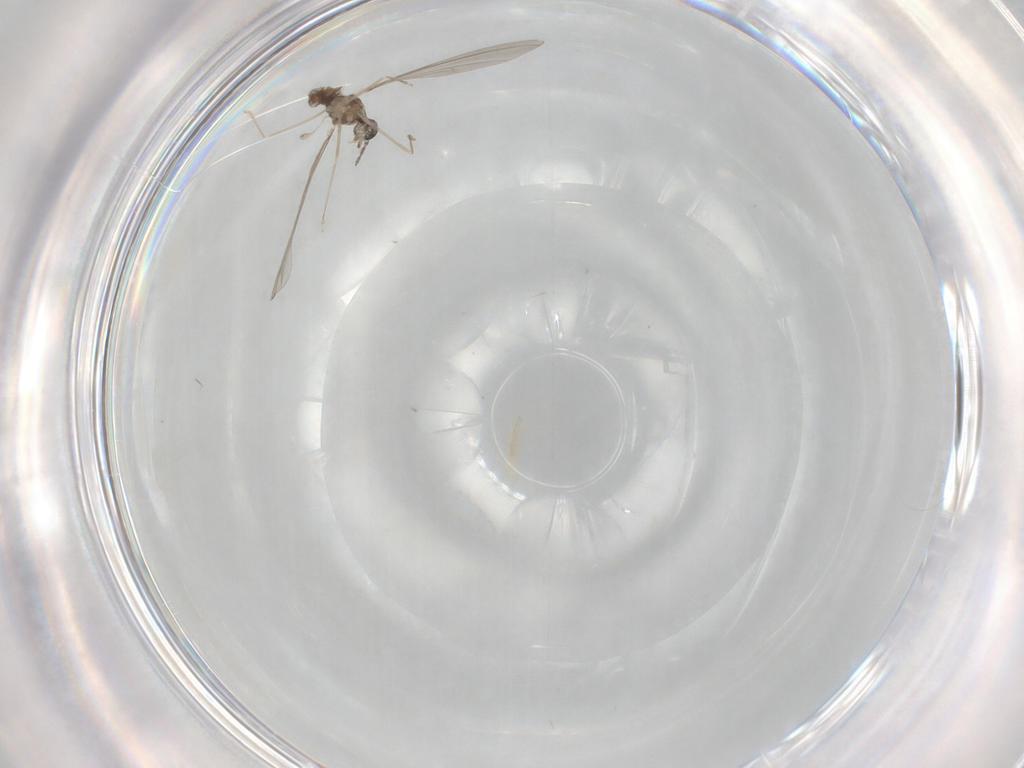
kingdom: Animalia
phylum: Arthropoda
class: Insecta
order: Diptera
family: Cecidomyiidae
